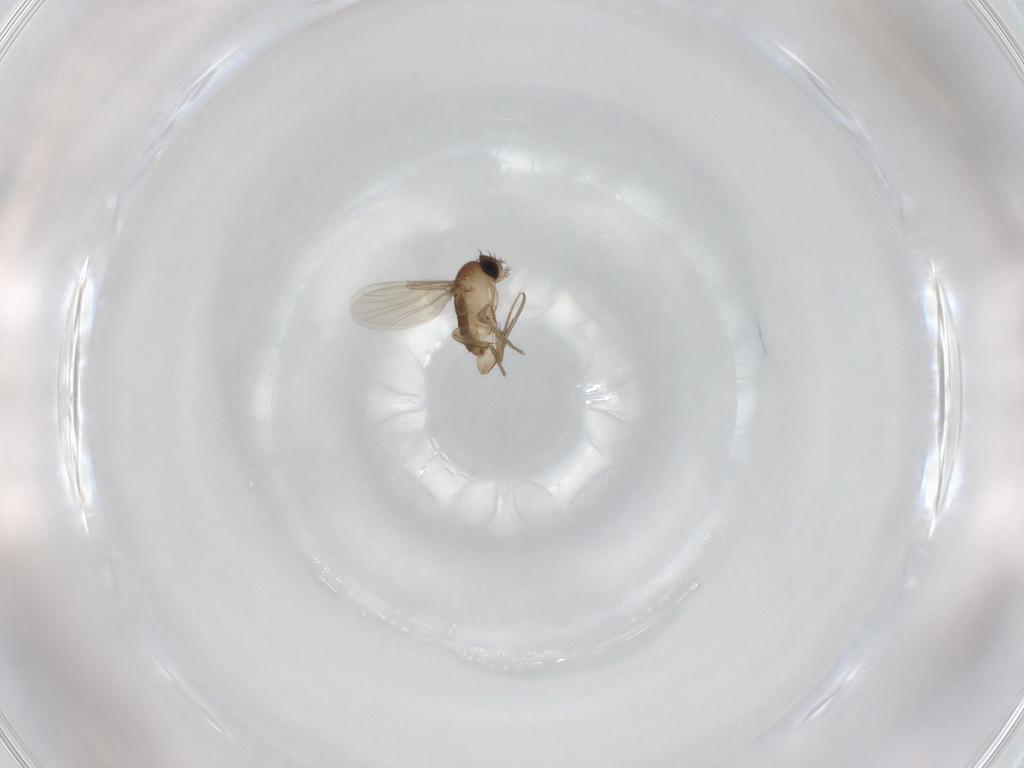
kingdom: Animalia
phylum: Arthropoda
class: Insecta
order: Diptera
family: Phoridae
